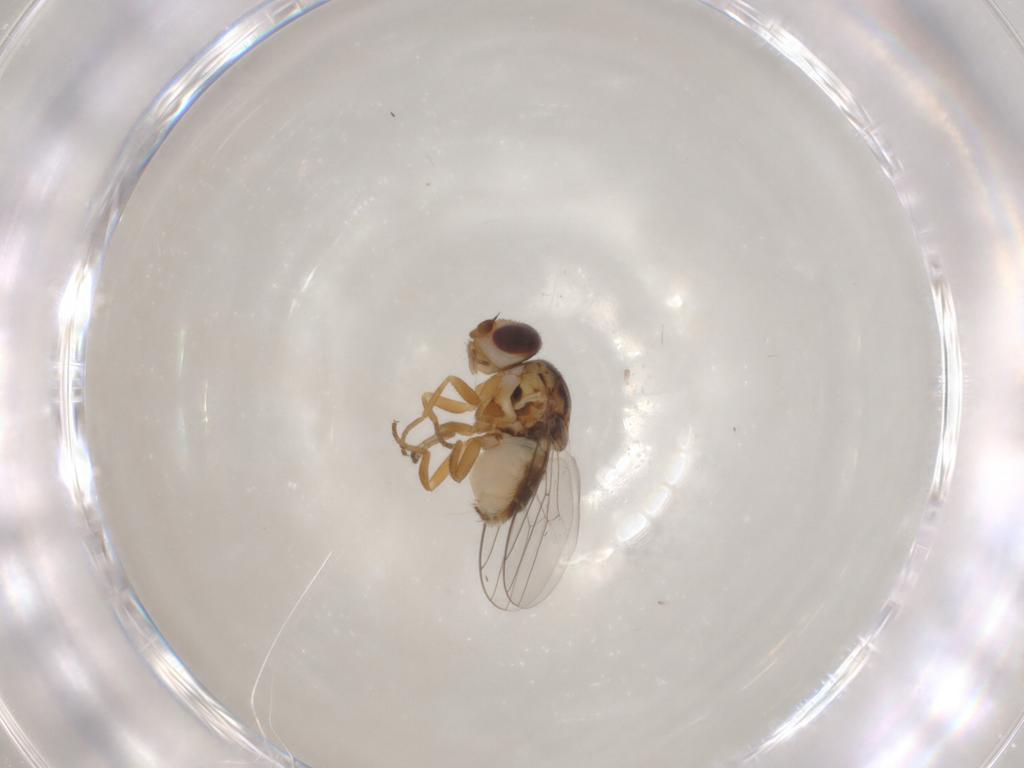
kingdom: Animalia
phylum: Arthropoda
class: Insecta
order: Diptera
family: Chloropidae
